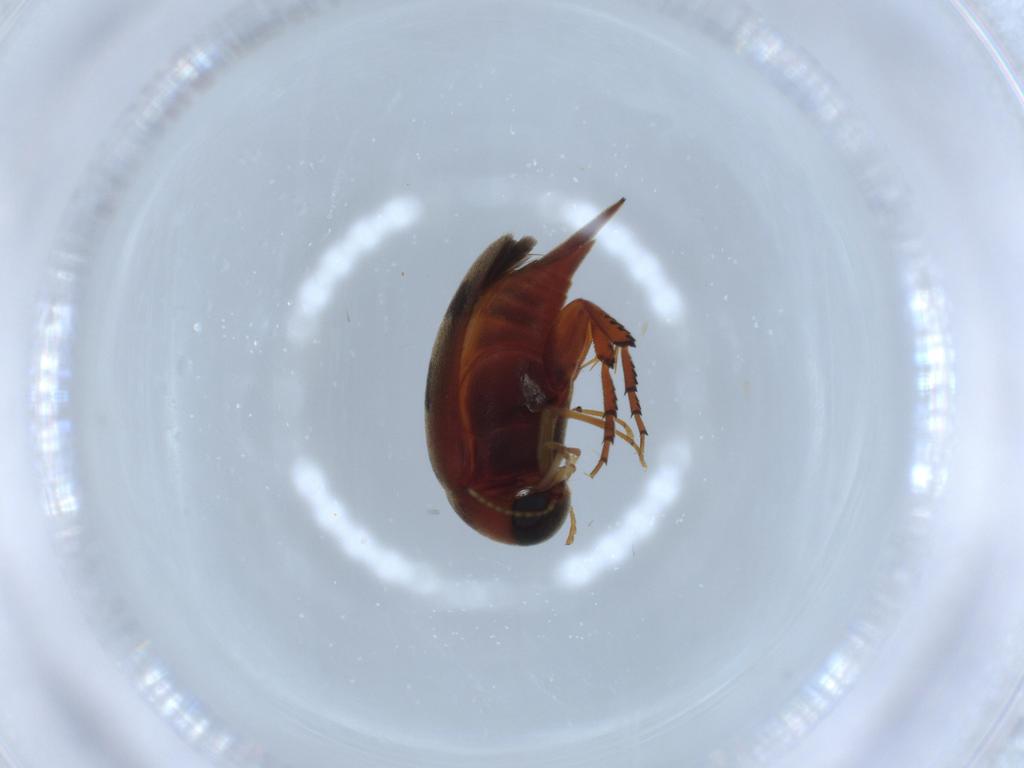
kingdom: Animalia
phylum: Arthropoda
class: Insecta
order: Coleoptera
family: Mordellidae
